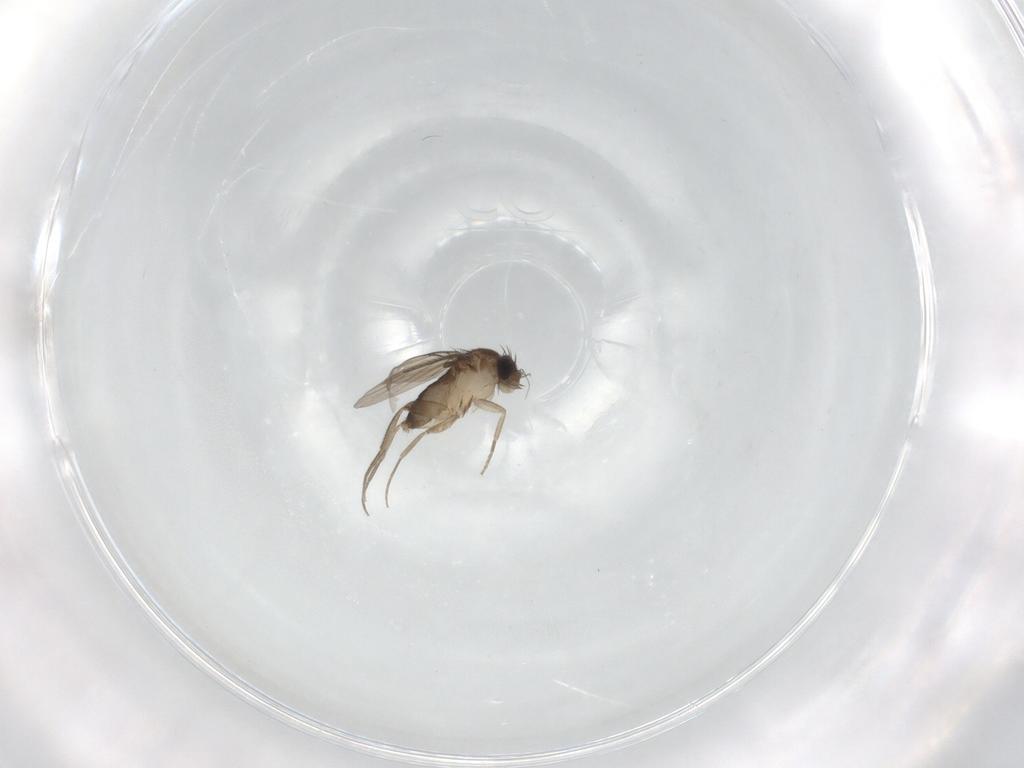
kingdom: Animalia
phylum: Arthropoda
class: Insecta
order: Diptera
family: Phoridae
